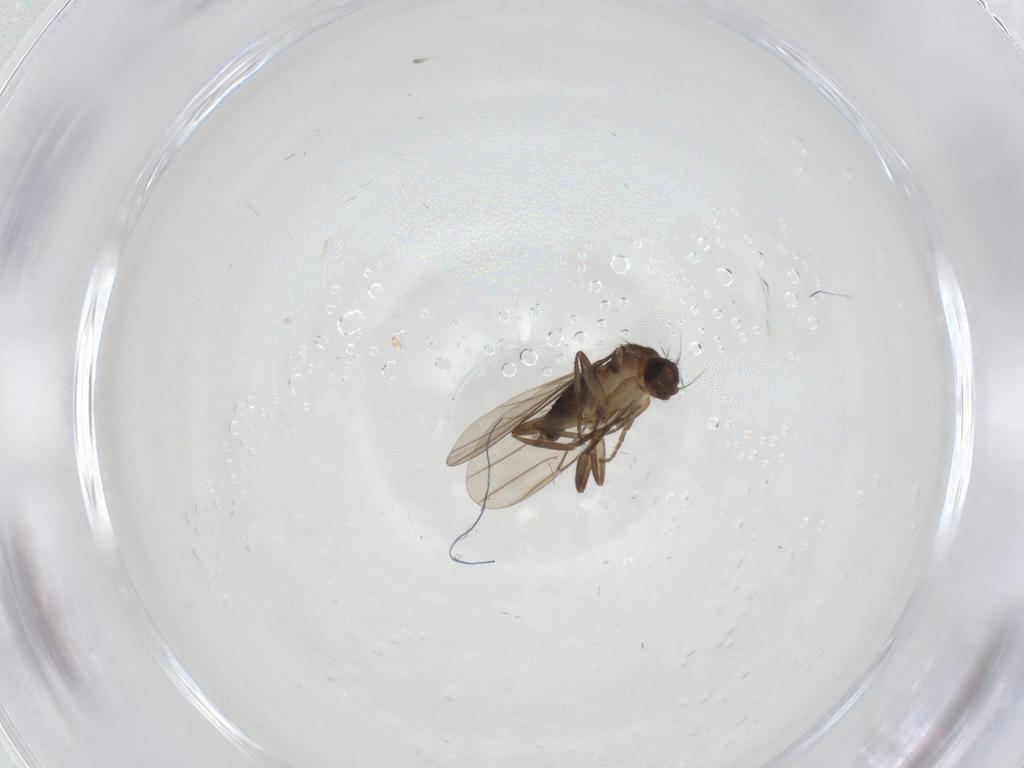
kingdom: Animalia
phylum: Arthropoda
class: Insecta
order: Diptera
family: Phoridae
